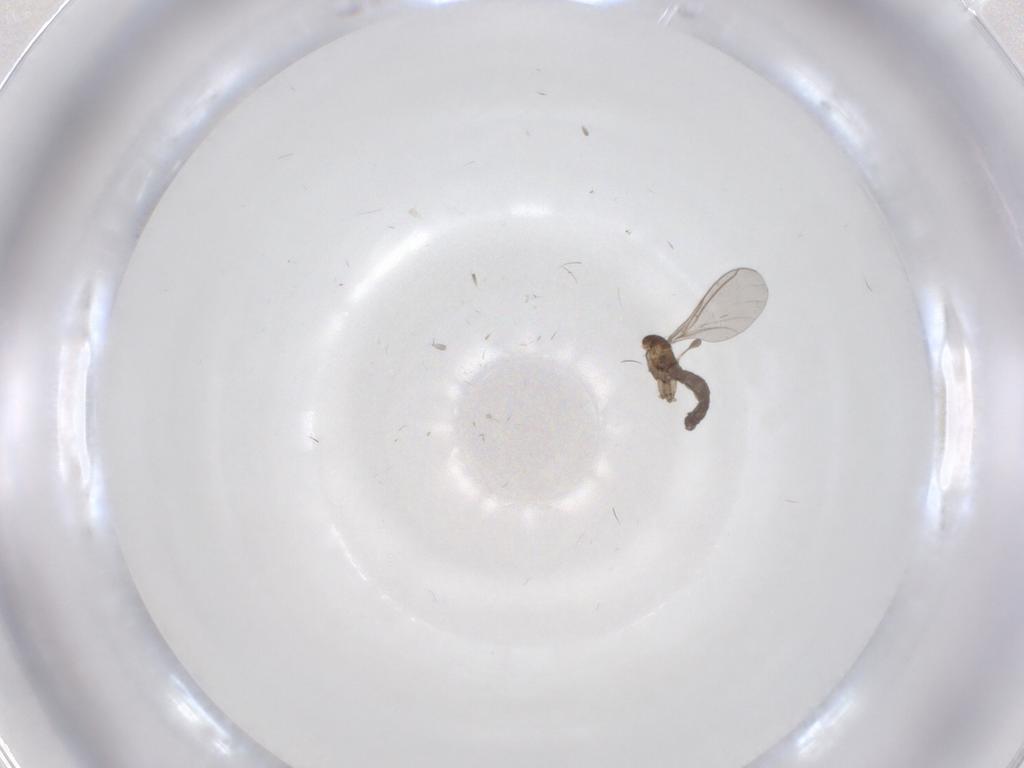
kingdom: Animalia
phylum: Arthropoda
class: Insecta
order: Diptera
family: Sciaridae
